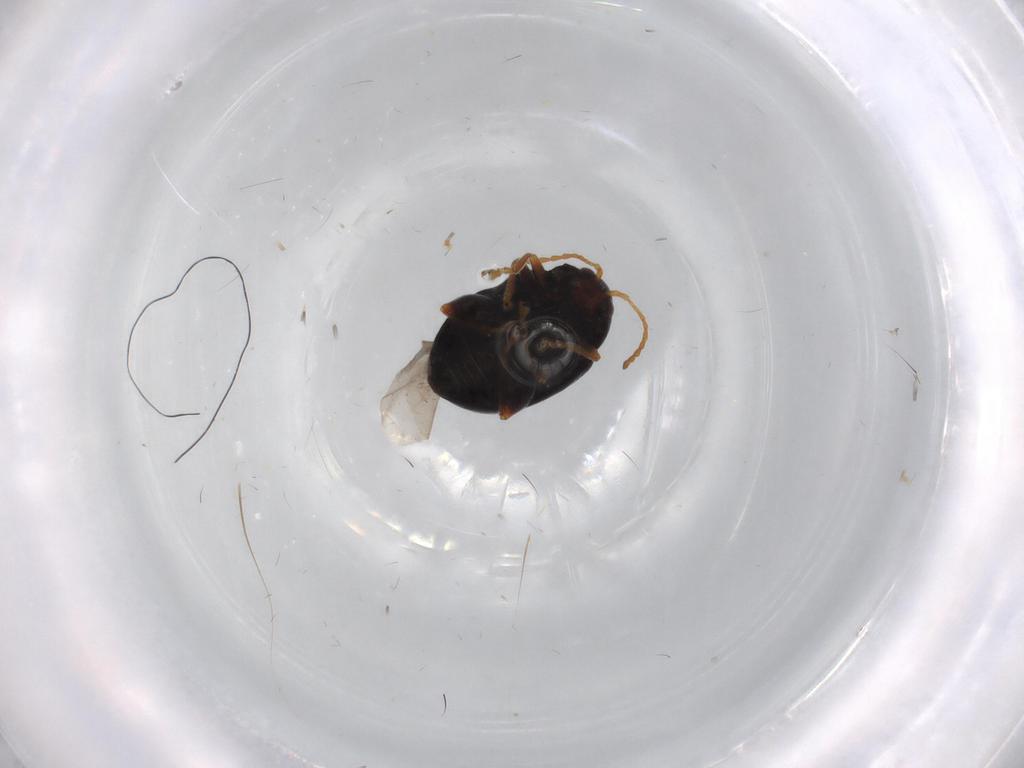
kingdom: Animalia
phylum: Arthropoda
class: Insecta
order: Coleoptera
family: Chrysomelidae
